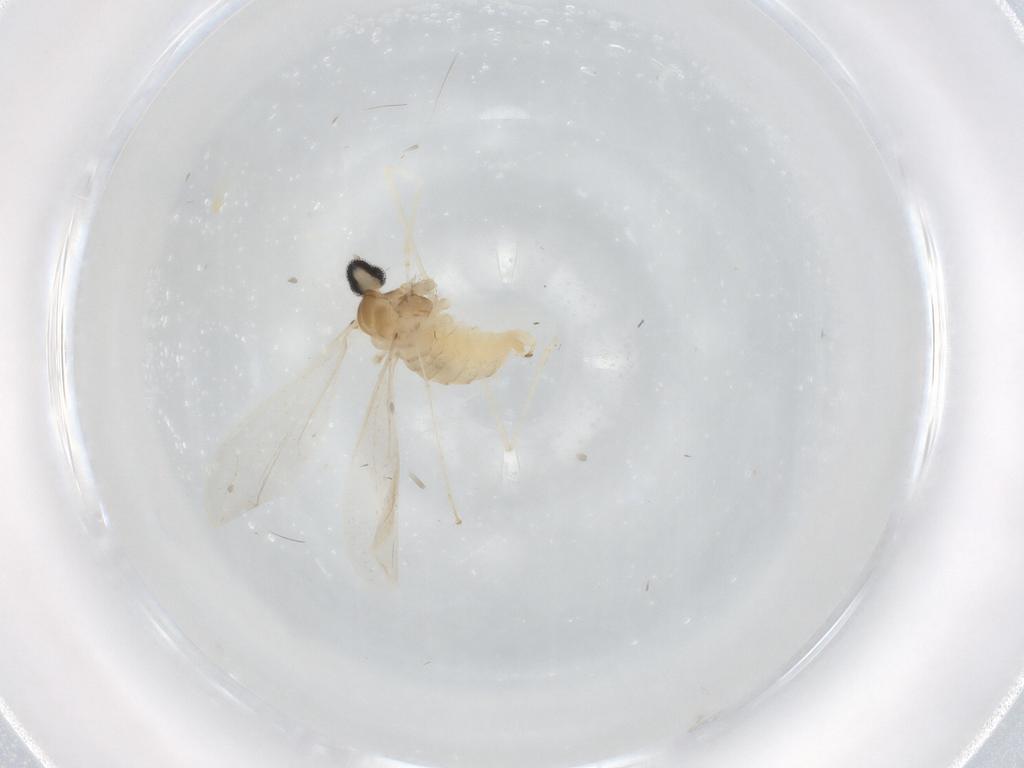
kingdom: Animalia
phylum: Arthropoda
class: Insecta
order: Diptera
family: Cecidomyiidae
